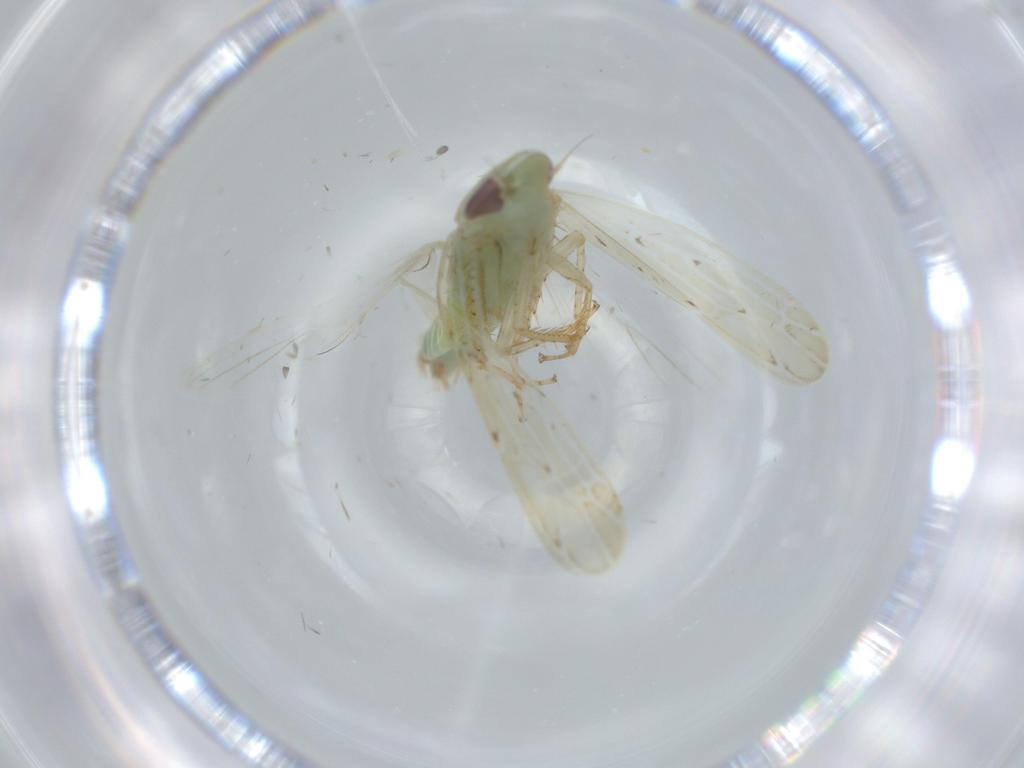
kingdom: Animalia
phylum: Arthropoda
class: Insecta
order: Hemiptera
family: Cicadellidae
